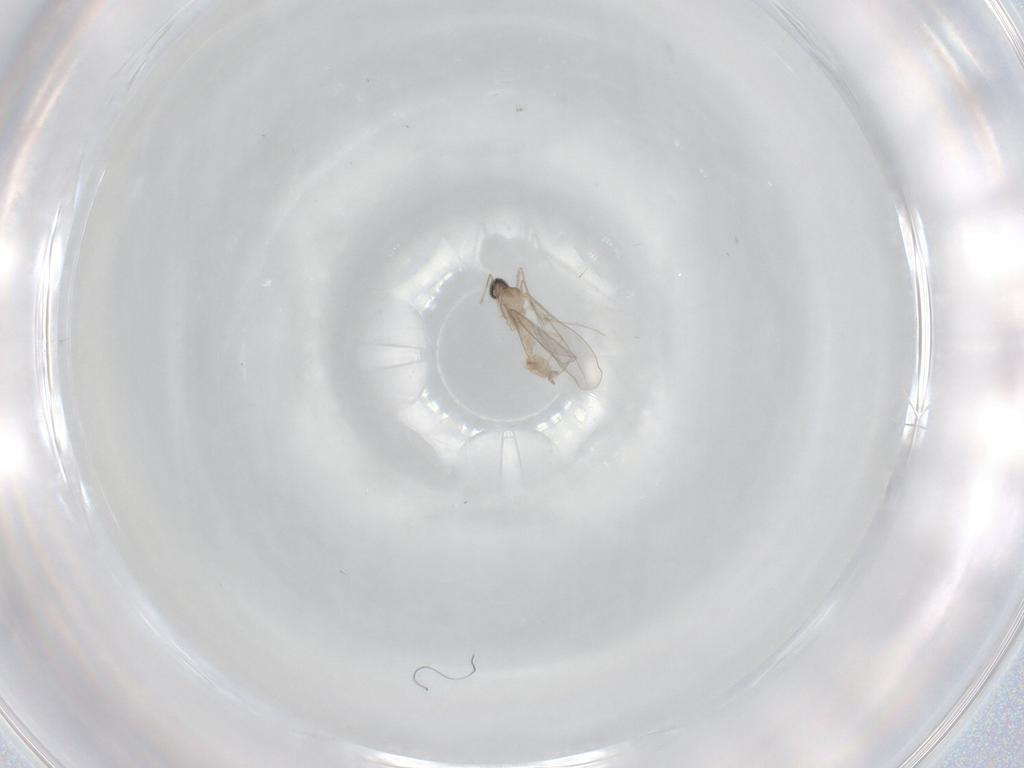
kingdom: Animalia
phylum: Arthropoda
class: Insecta
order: Diptera
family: Cecidomyiidae
